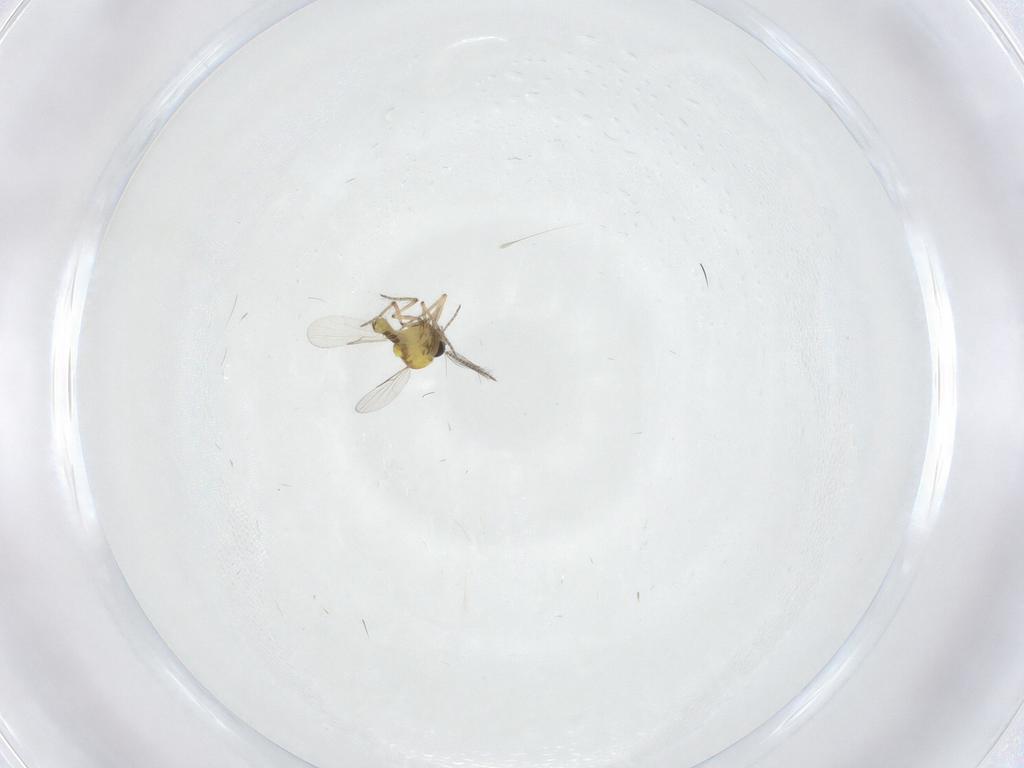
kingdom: Animalia
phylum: Arthropoda
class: Insecta
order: Diptera
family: Ceratopogonidae
